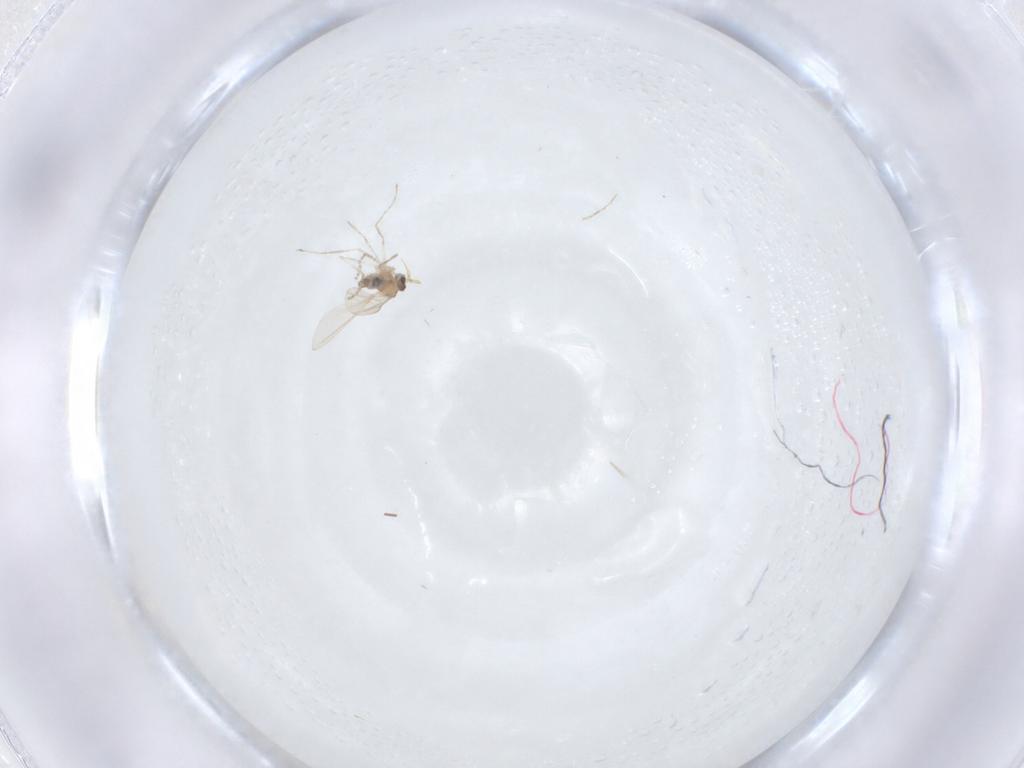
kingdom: Animalia
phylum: Arthropoda
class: Insecta
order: Diptera
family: Cecidomyiidae
